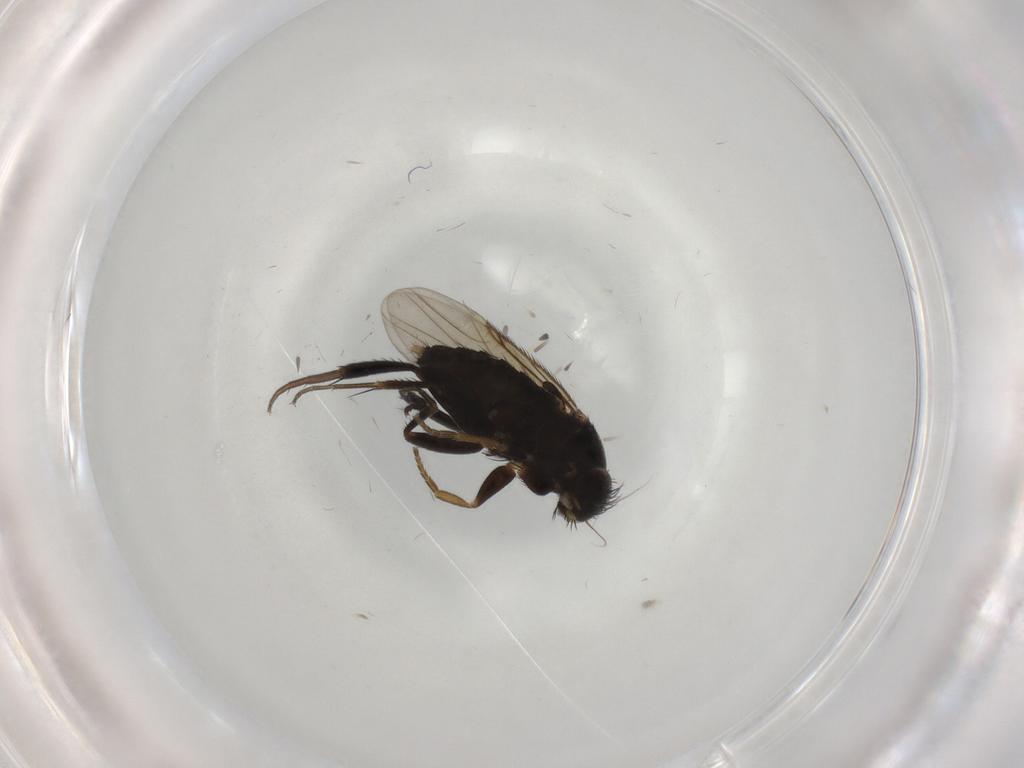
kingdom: Animalia
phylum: Arthropoda
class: Insecta
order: Diptera
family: Phoridae
